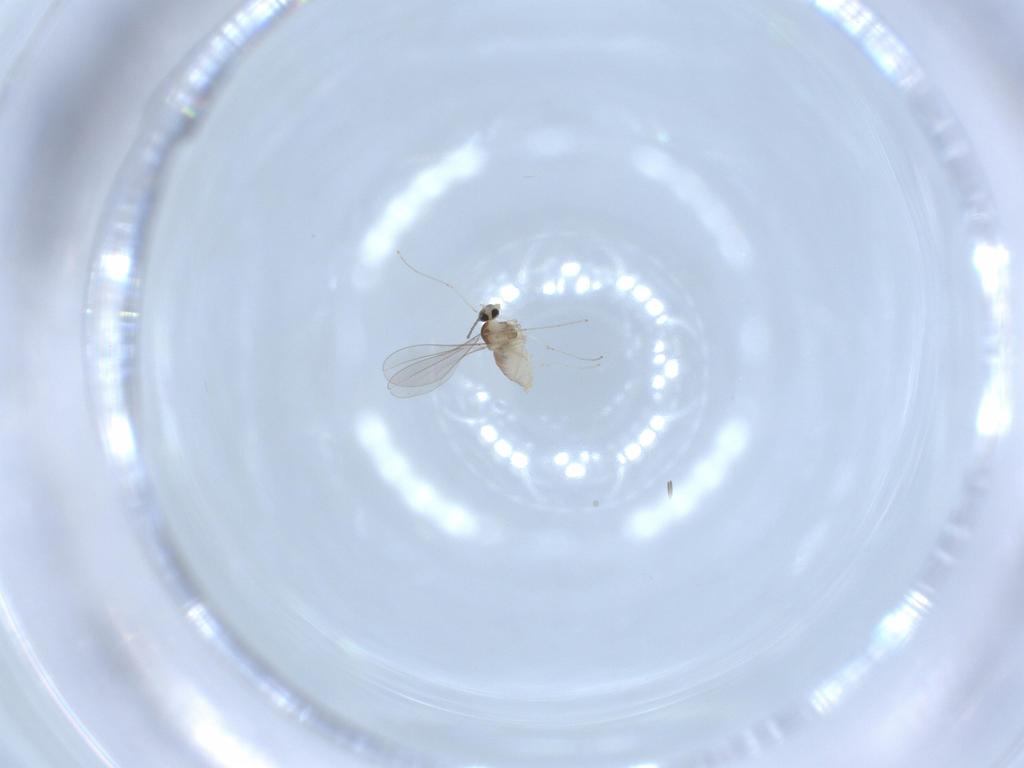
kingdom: Animalia
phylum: Arthropoda
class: Insecta
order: Diptera
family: Cecidomyiidae
